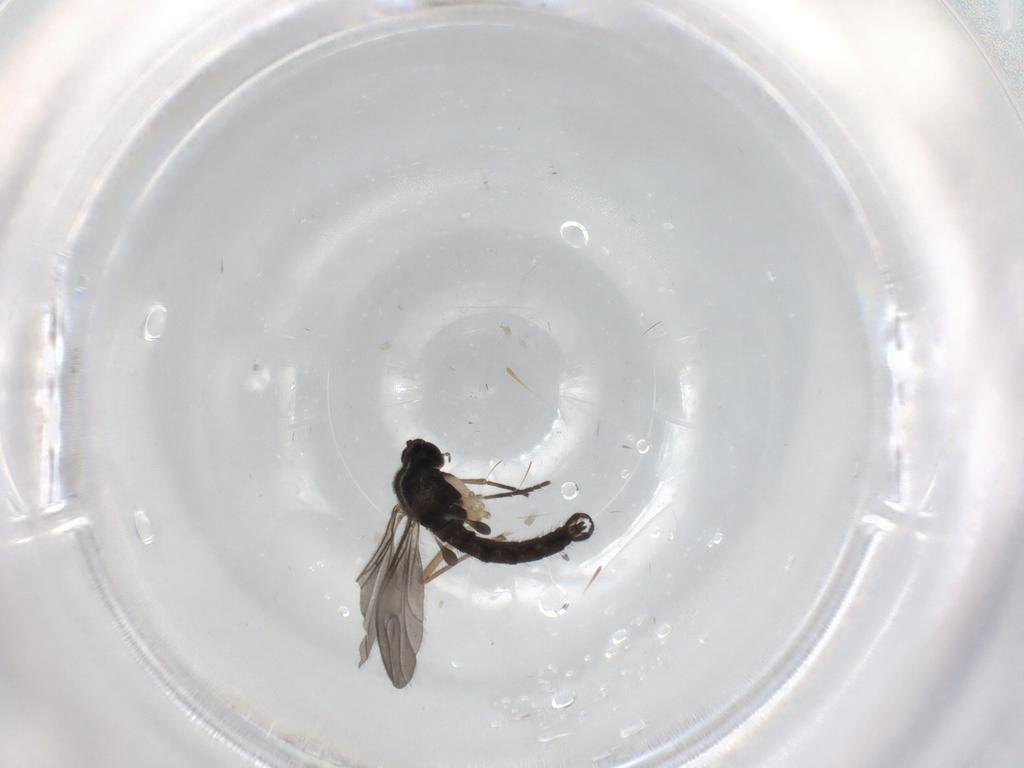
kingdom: Animalia
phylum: Arthropoda
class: Insecta
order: Diptera
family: Sciaridae
